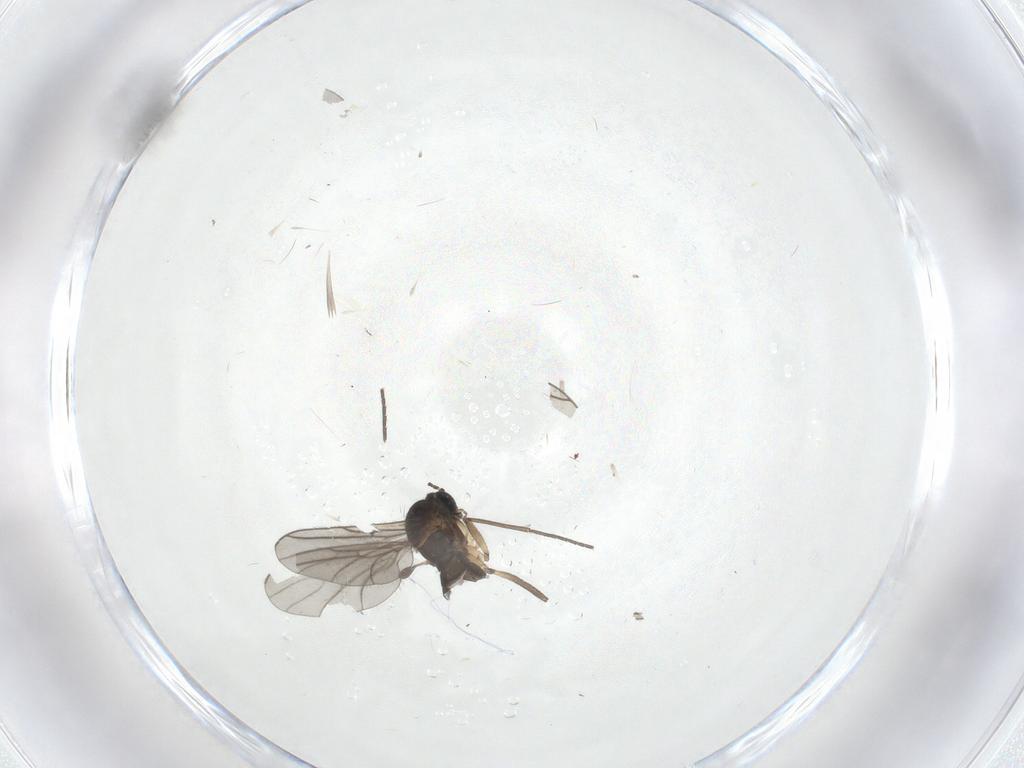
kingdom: Animalia
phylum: Arthropoda
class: Insecta
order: Diptera
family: Sciaridae
